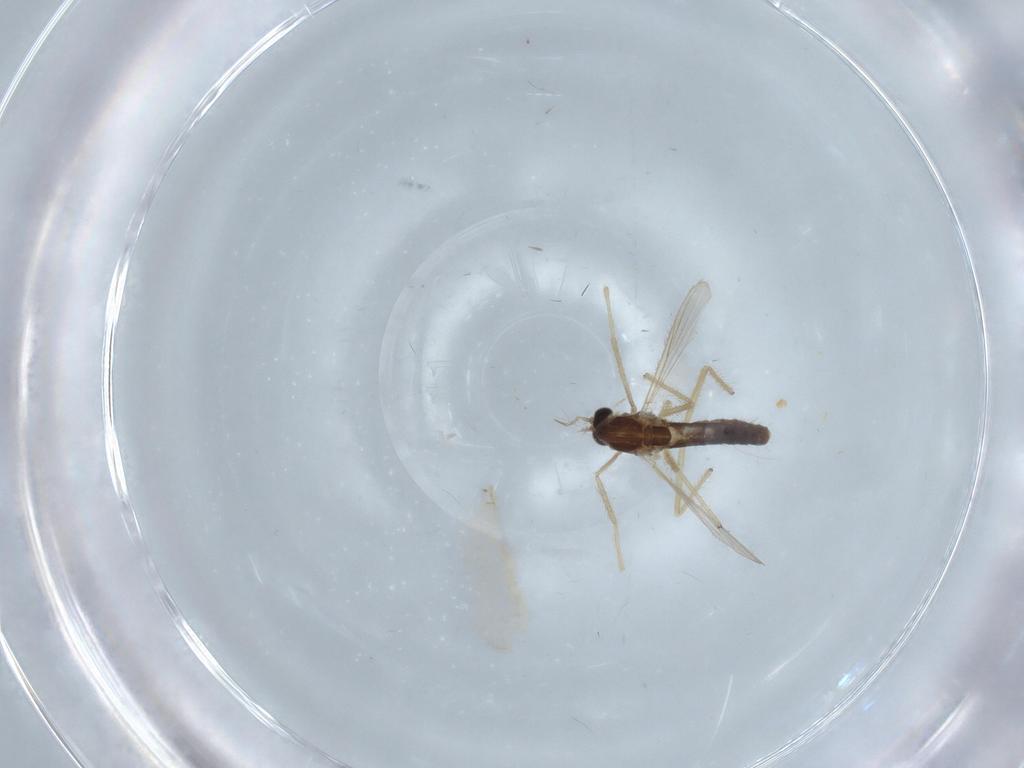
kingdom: Animalia
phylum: Arthropoda
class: Insecta
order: Diptera
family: Chironomidae
